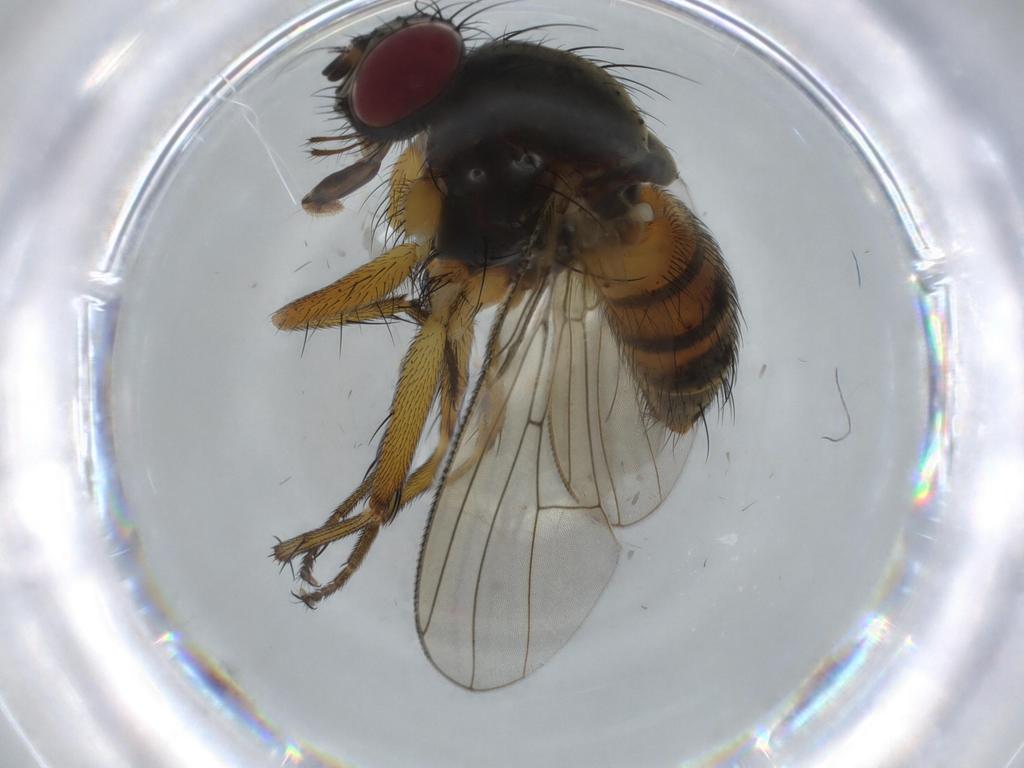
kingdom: Animalia
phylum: Arthropoda
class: Insecta
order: Diptera
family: Muscidae
